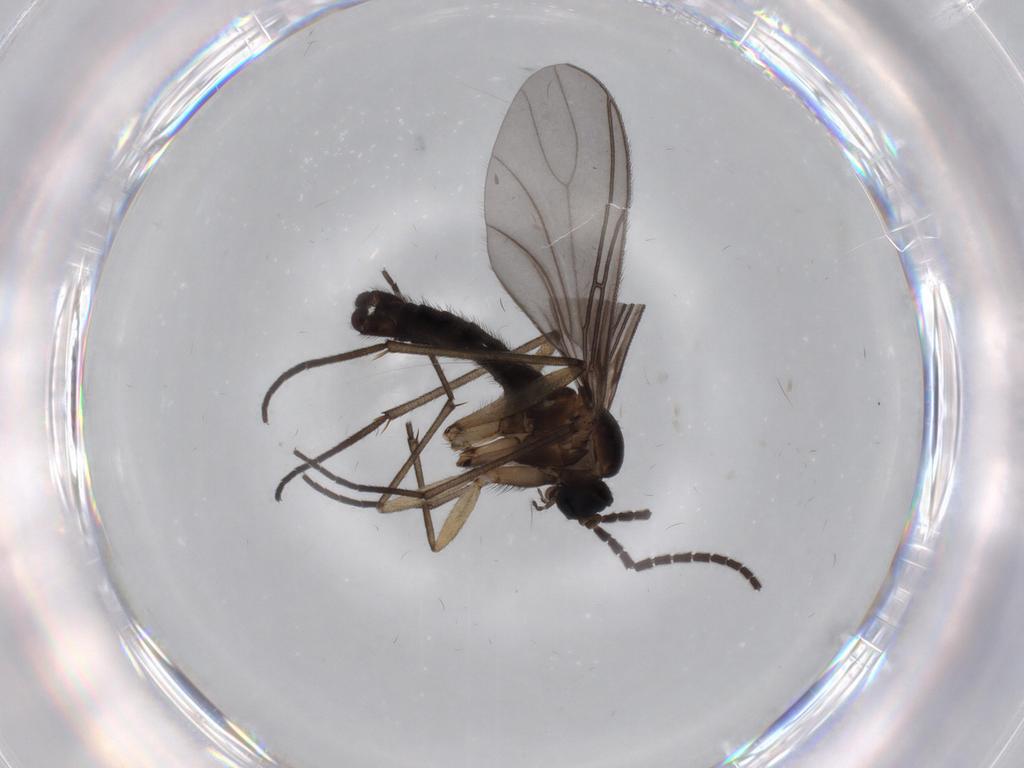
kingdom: Animalia
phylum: Arthropoda
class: Insecta
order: Diptera
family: Sciaridae
